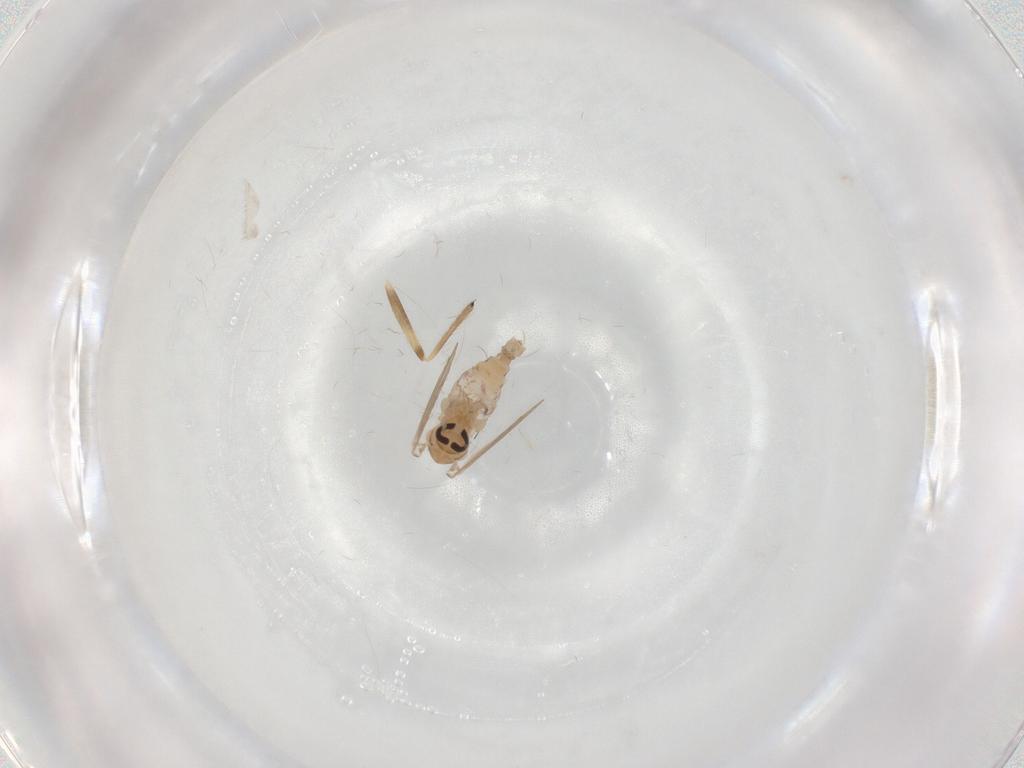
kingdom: Animalia
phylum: Arthropoda
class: Insecta
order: Diptera
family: Psychodidae
